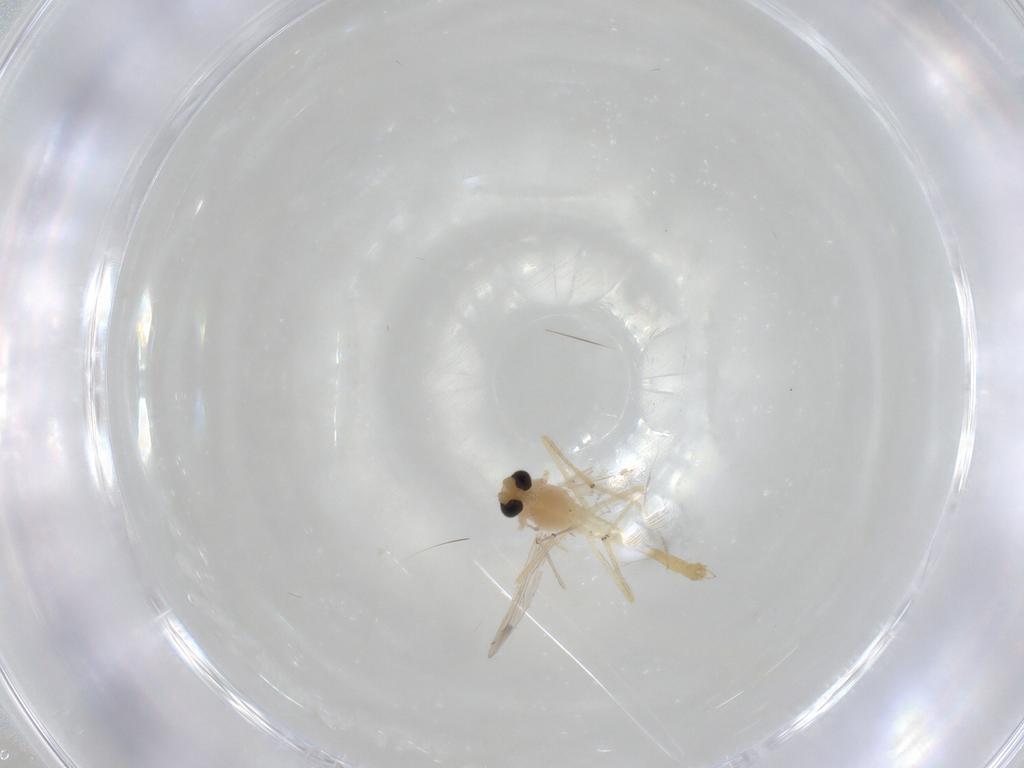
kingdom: Animalia
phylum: Arthropoda
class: Insecta
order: Diptera
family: Chironomidae
